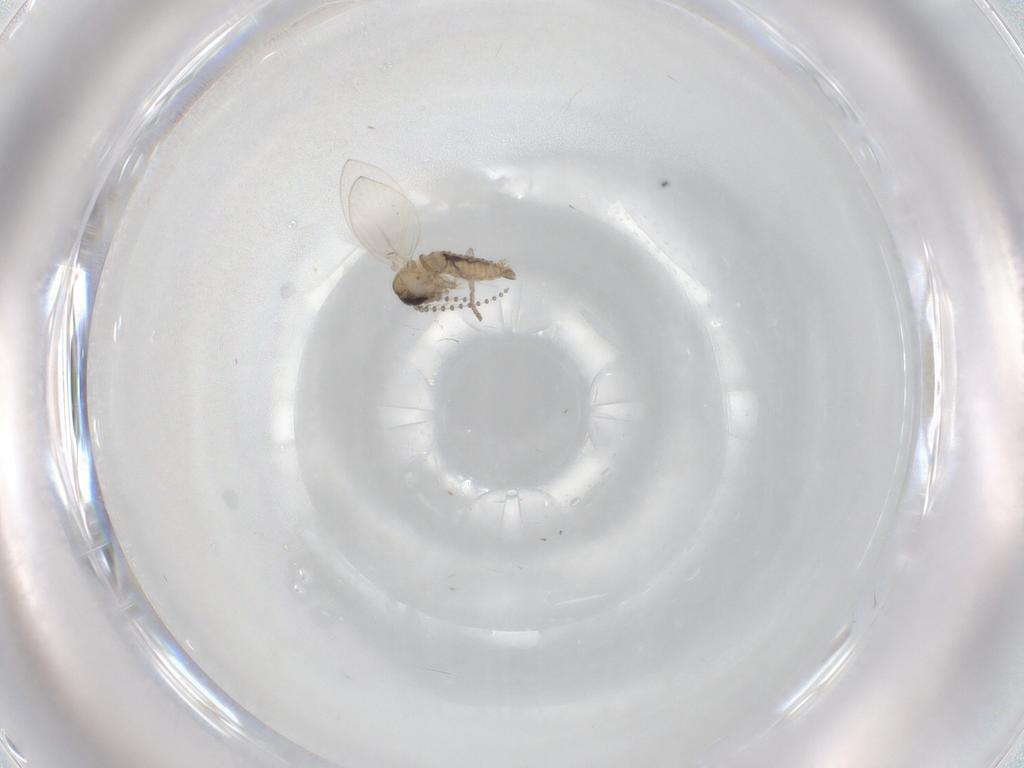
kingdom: Animalia
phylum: Arthropoda
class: Insecta
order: Diptera
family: Psychodidae
